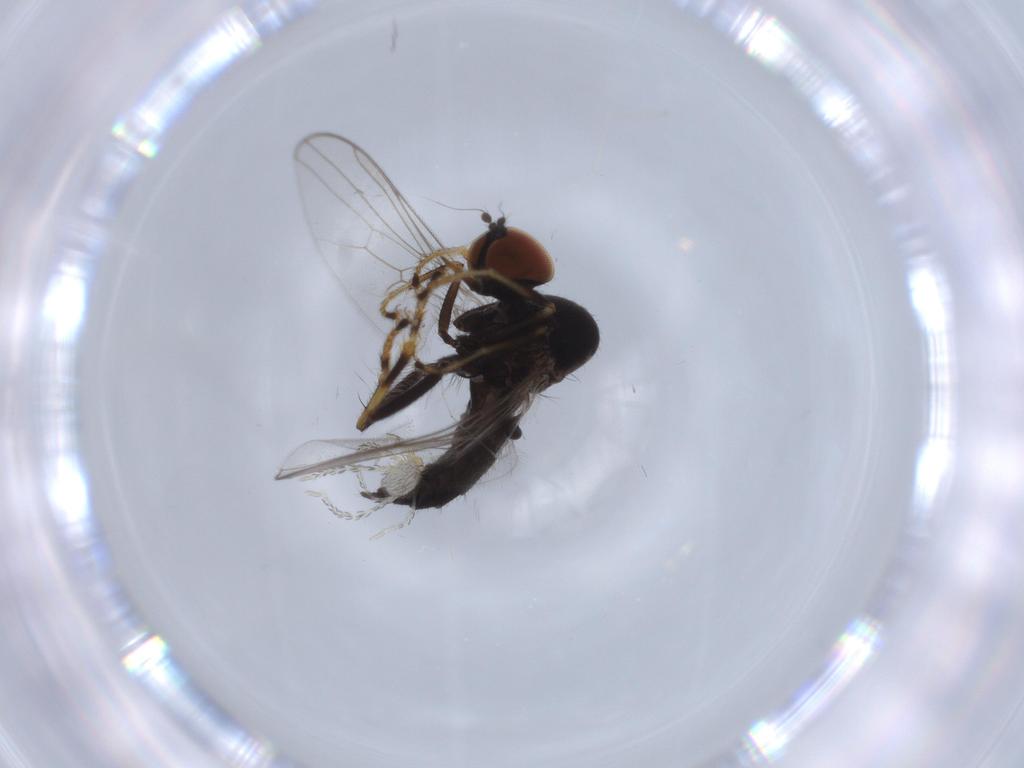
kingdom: Animalia
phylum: Arthropoda
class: Insecta
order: Diptera
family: Hybotidae
